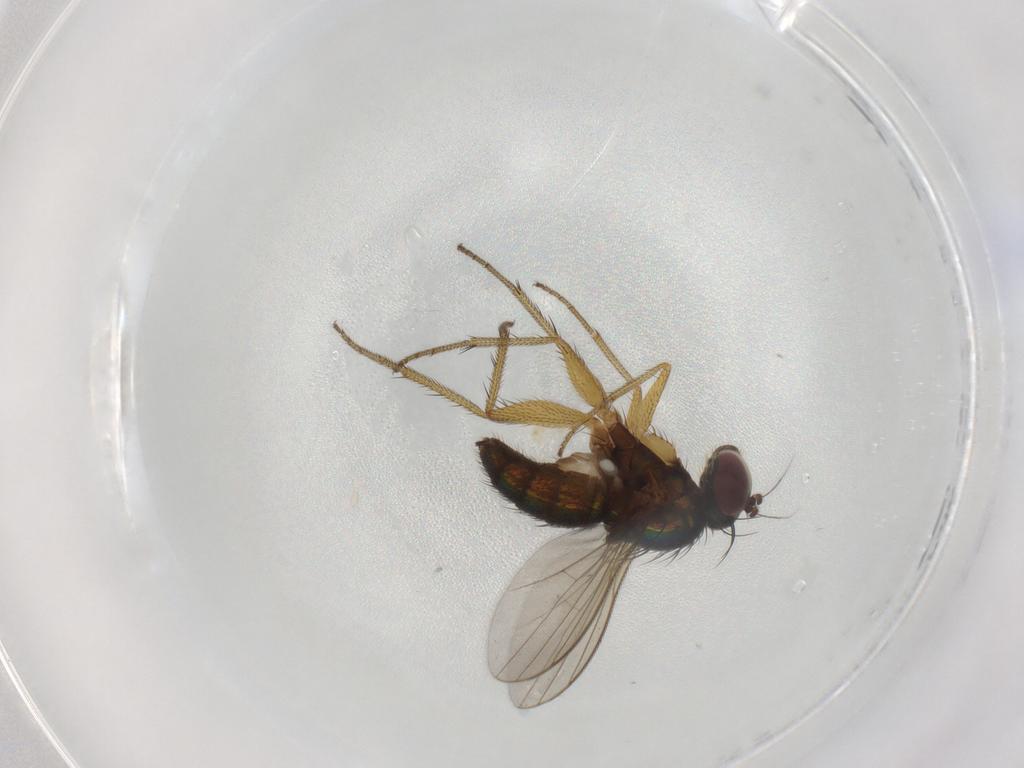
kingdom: Animalia
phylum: Arthropoda
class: Insecta
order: Diptera
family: Dolichopodidae
